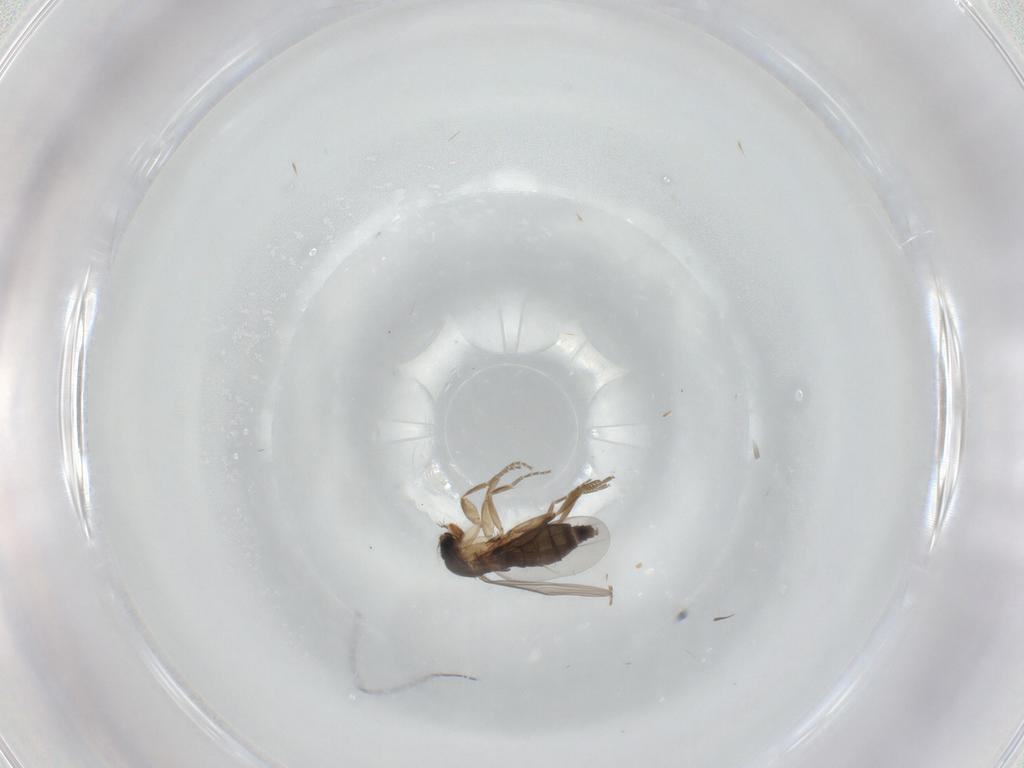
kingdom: Animalia
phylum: Arthropoda
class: Insecta
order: Diptera
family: Phoridae
